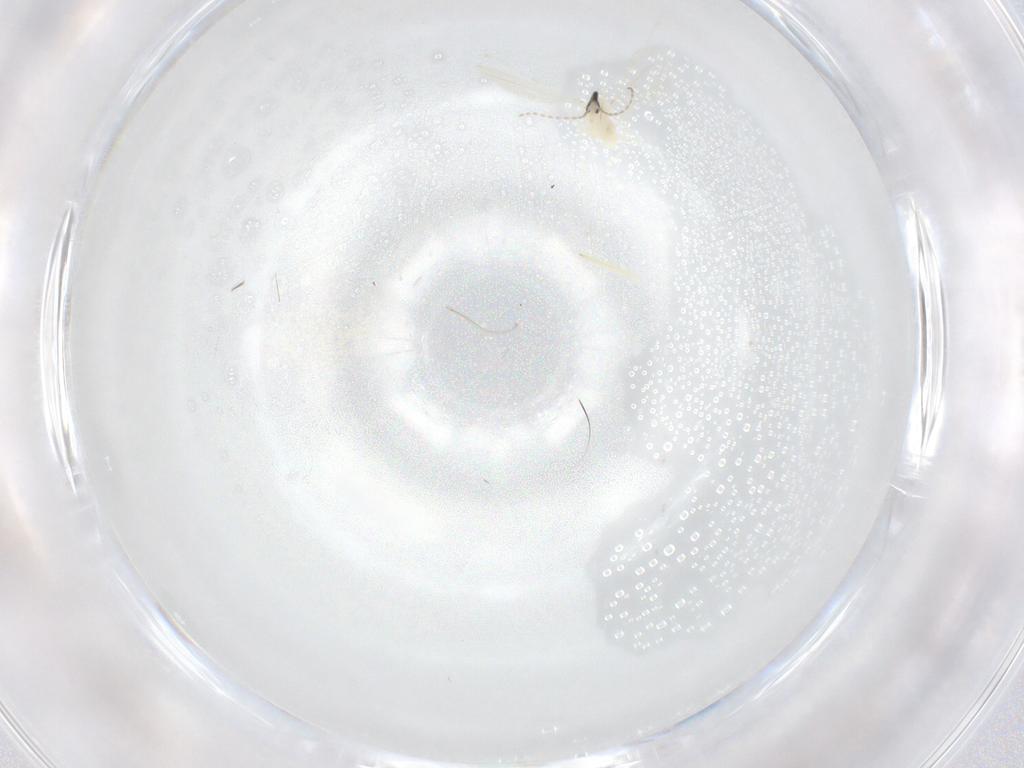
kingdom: Animalia
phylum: Arthropoda
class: Insecta
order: Diptera
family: Cecidomyiidae
